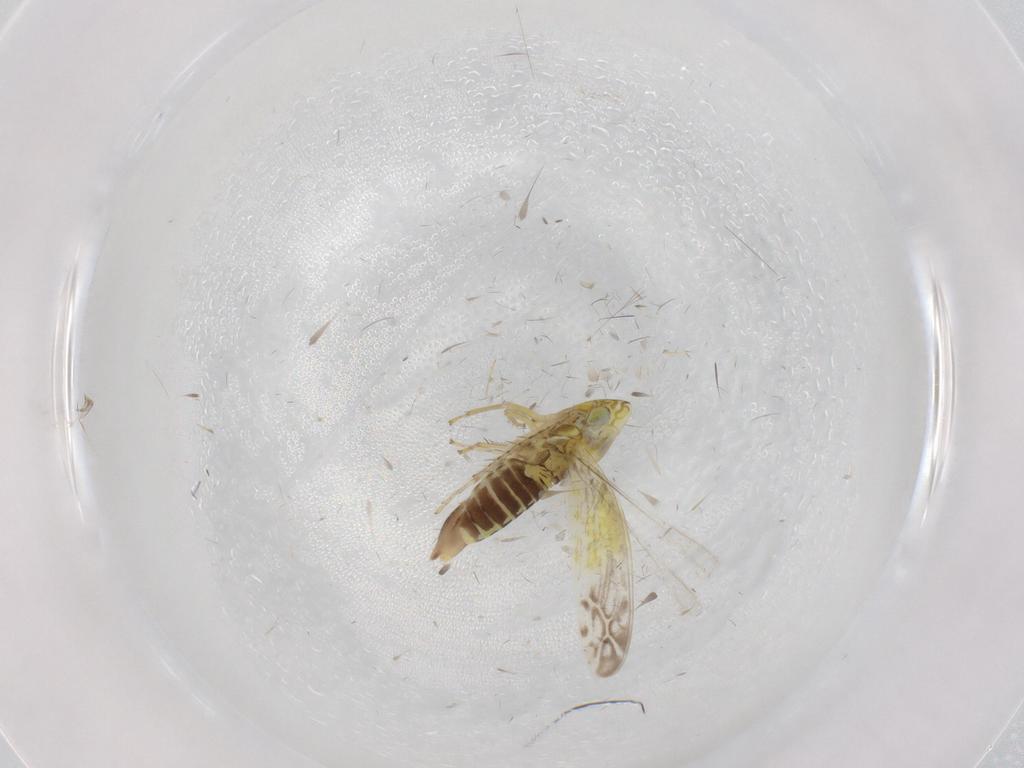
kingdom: Animalia
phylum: Arthropoda
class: Insecta
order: Hemiptera
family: Cicadellidae
